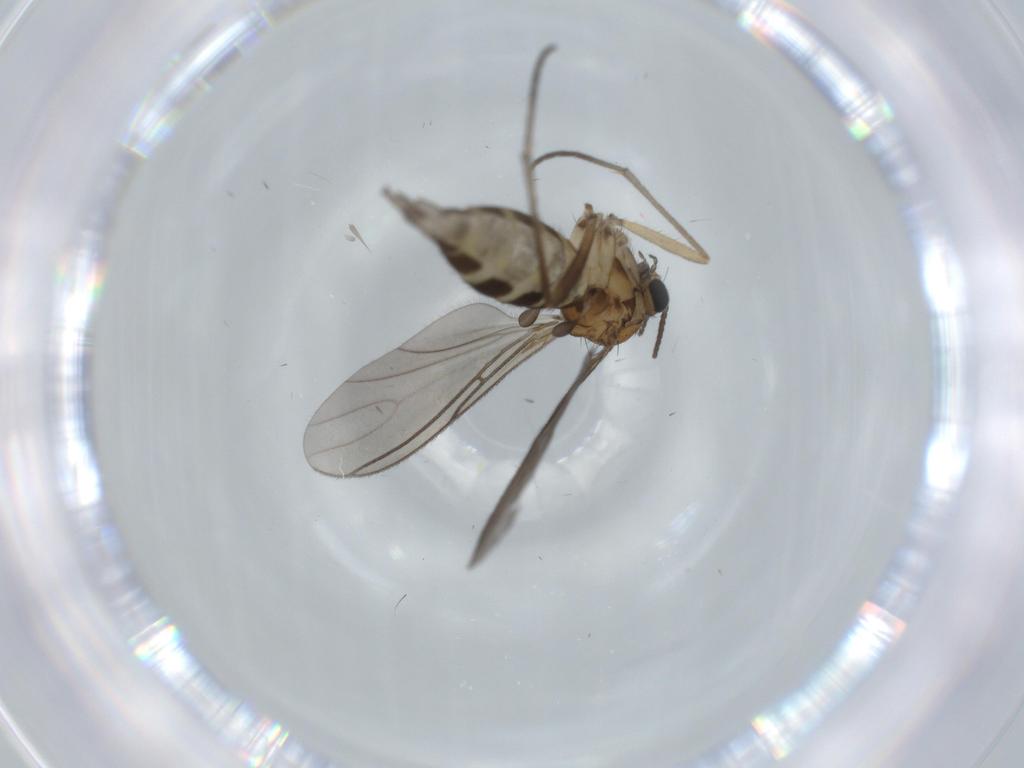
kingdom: Animalia
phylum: Arthropoda
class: Insecta
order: Diptera
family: Sciaridae
